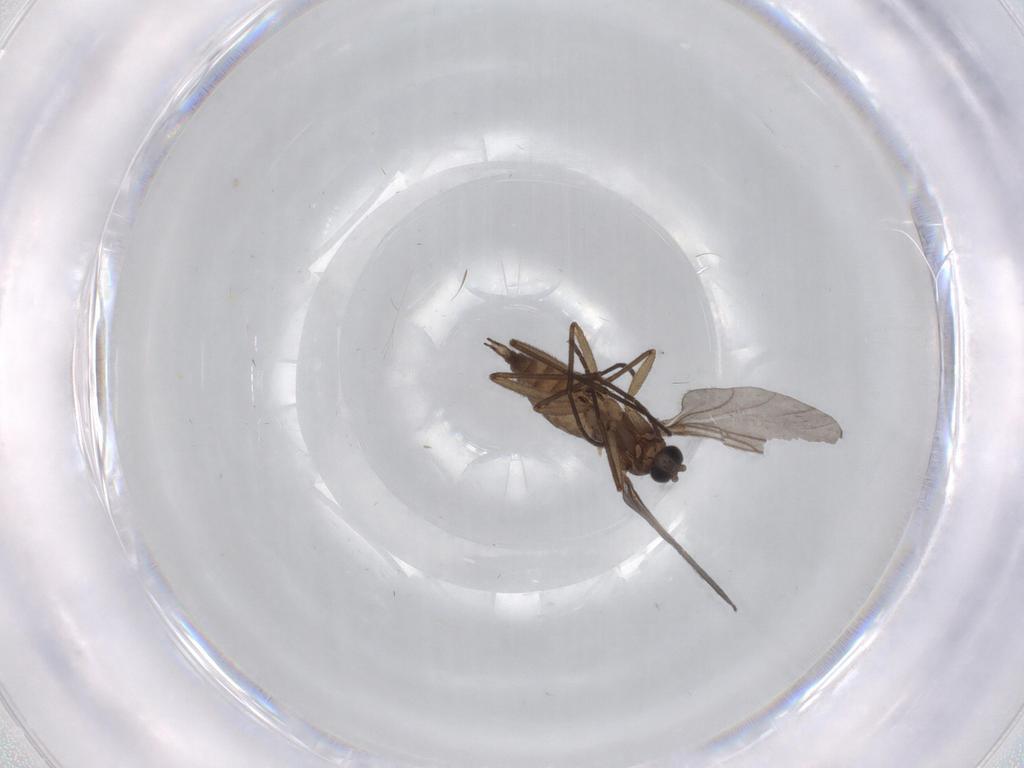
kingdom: Animalia
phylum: Arthropoda
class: Insecta
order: Diptera
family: Sciaridae
